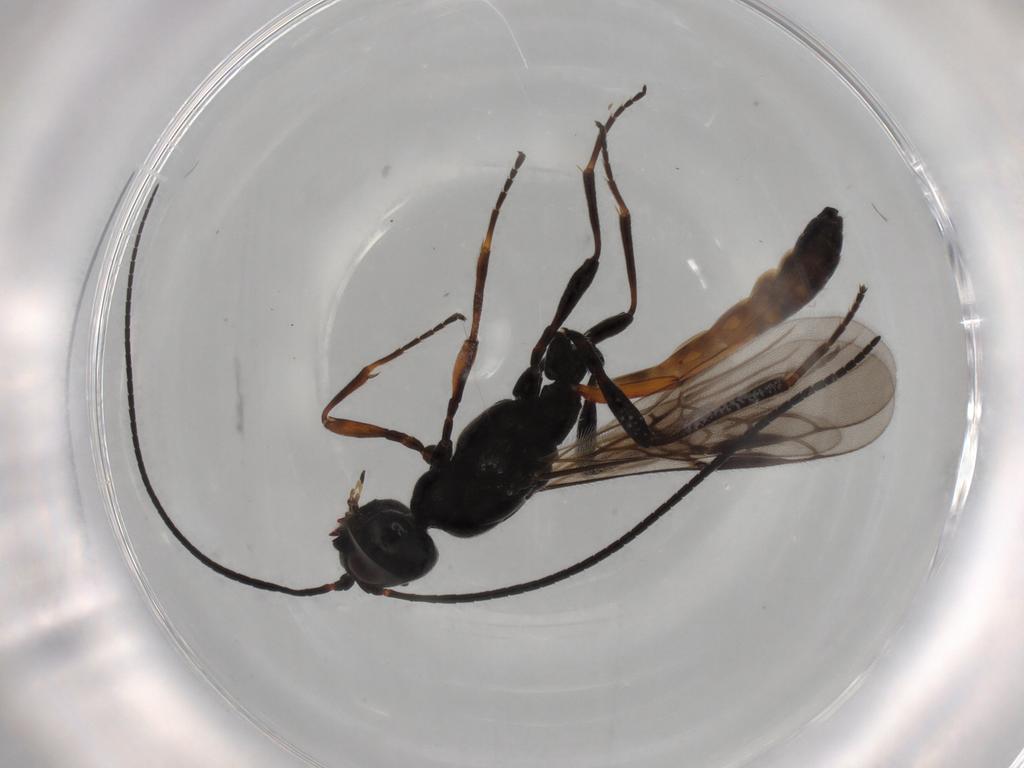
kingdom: Animalia
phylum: Arthropoda
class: Insecta
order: Hymenoptera
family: Braconidae
